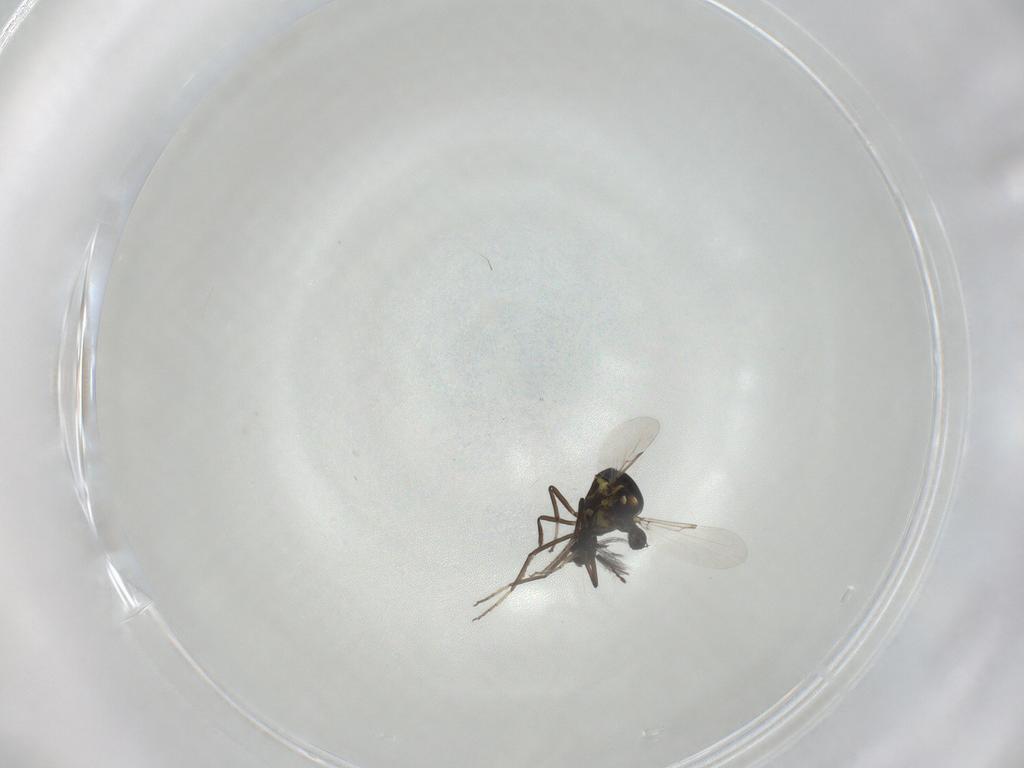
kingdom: Animalia
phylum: Arthropoda
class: Insecta
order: Diptera
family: Ceratopogonidae
